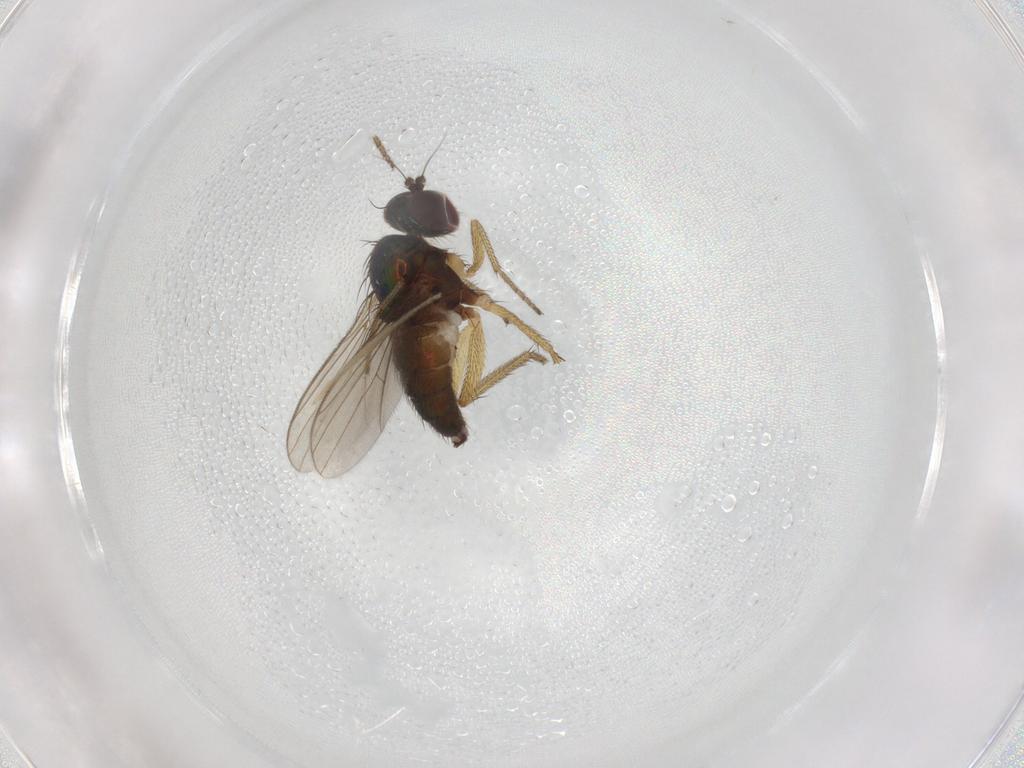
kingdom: Animalia
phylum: Arthropoda
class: Insecta
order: Diptera
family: Chironomidae
